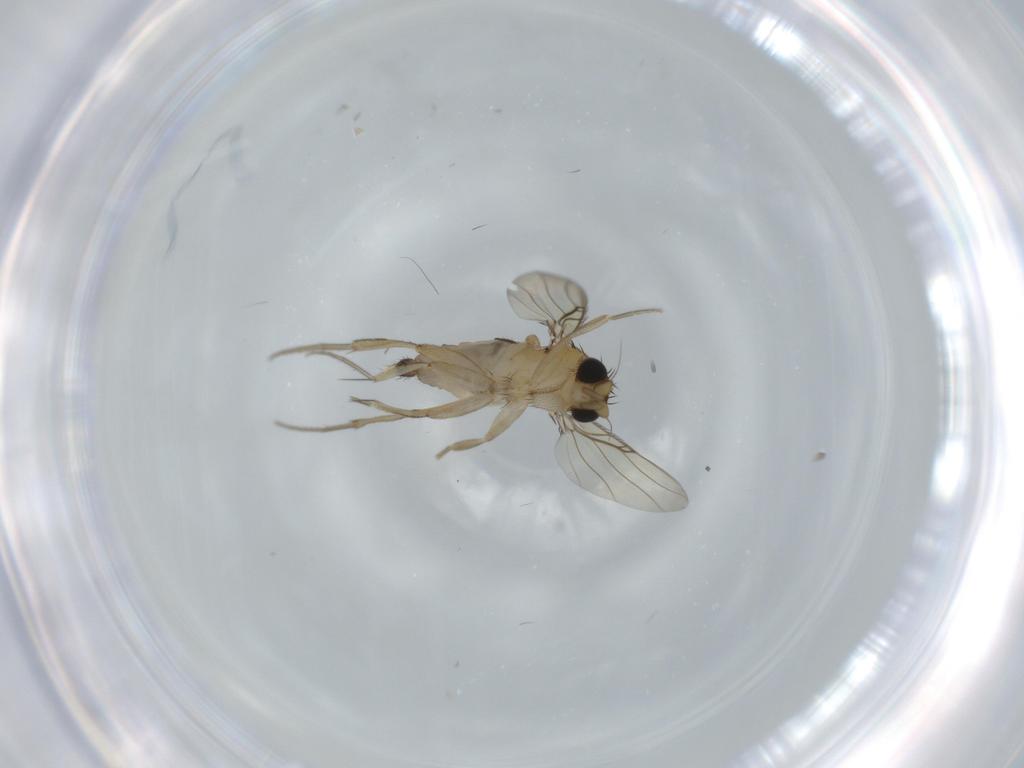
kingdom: Animalia
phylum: Arthropoda
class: Insecta
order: Diptera
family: Phoridae
